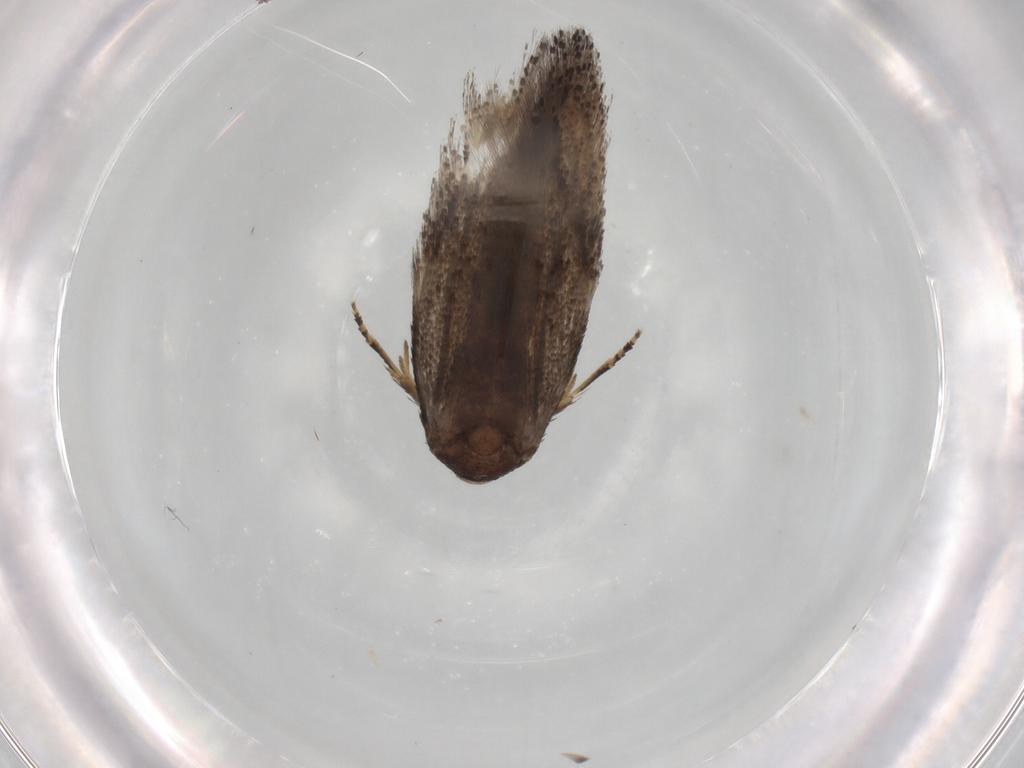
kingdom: Animalia
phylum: Arthropoda
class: Insecta
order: Lepidoptera
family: Elachistidae
